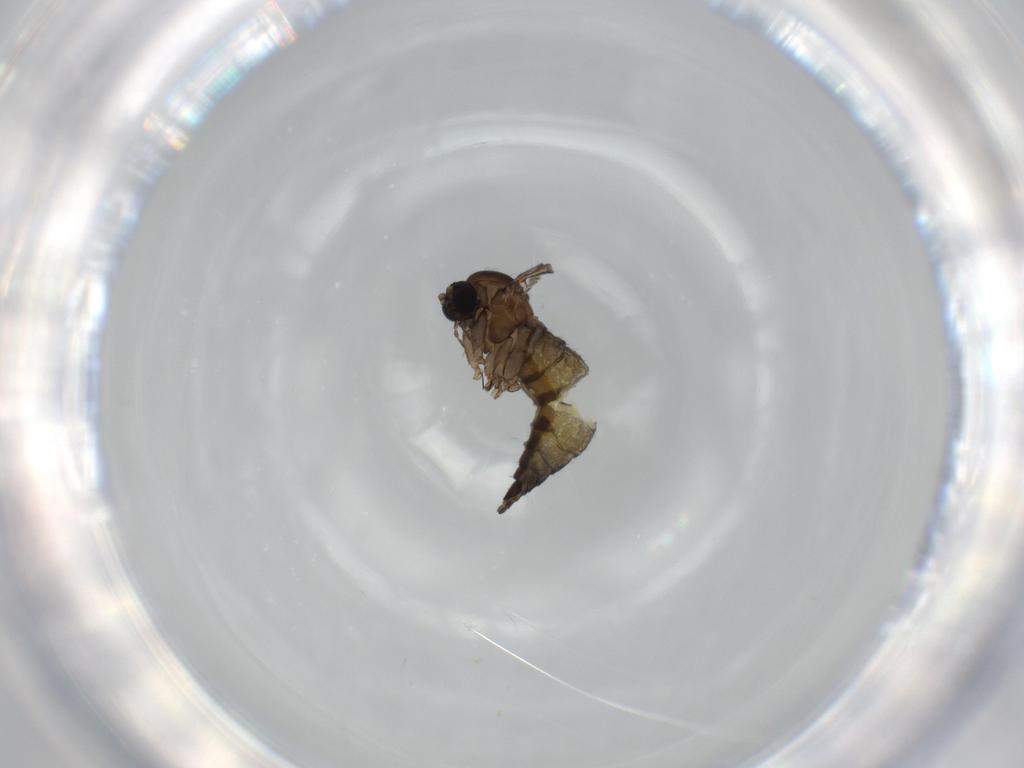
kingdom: Animalia
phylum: Arthropoda
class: Insecta
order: Diptera
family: Sciaridae
